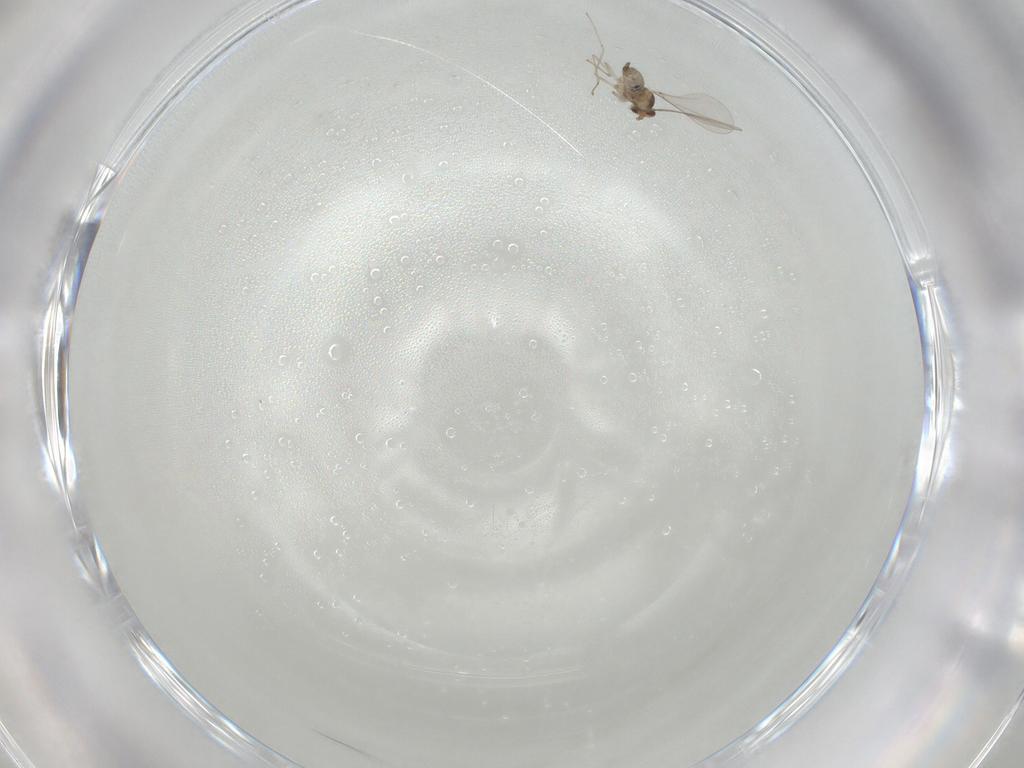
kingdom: Animalia
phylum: Arthropoda
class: Insecta
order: Diptera
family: Cecidomyiidae
